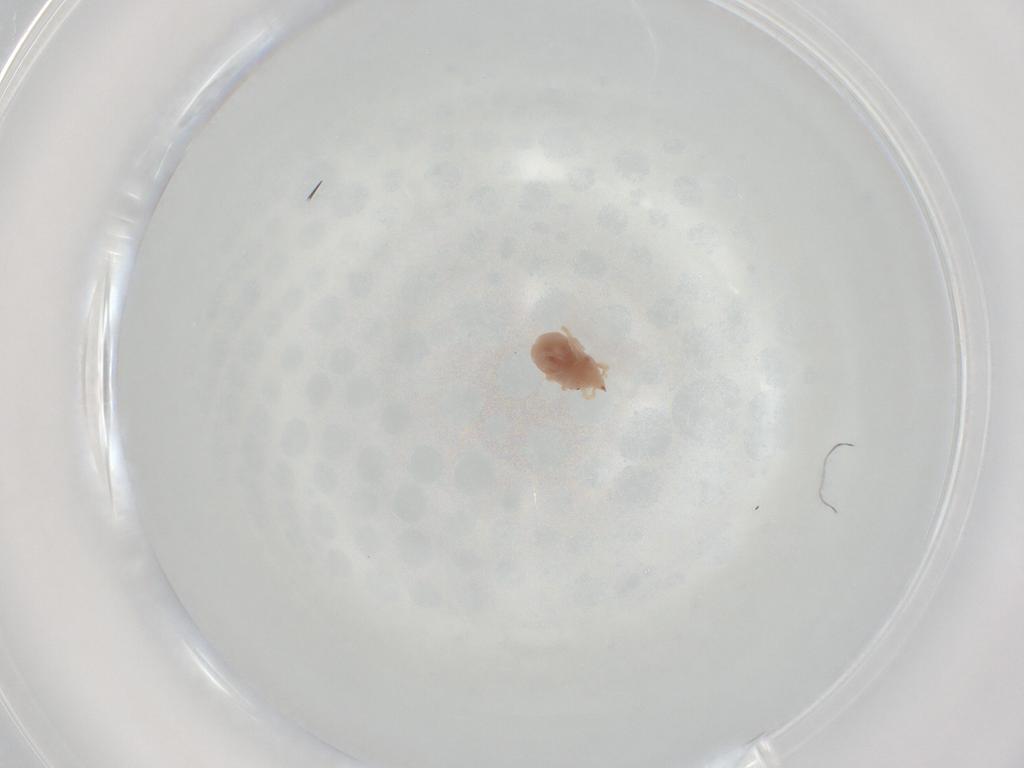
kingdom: Animalia
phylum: Arthropoda
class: Arachnida
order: Trombidiformes
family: Bdellidae
